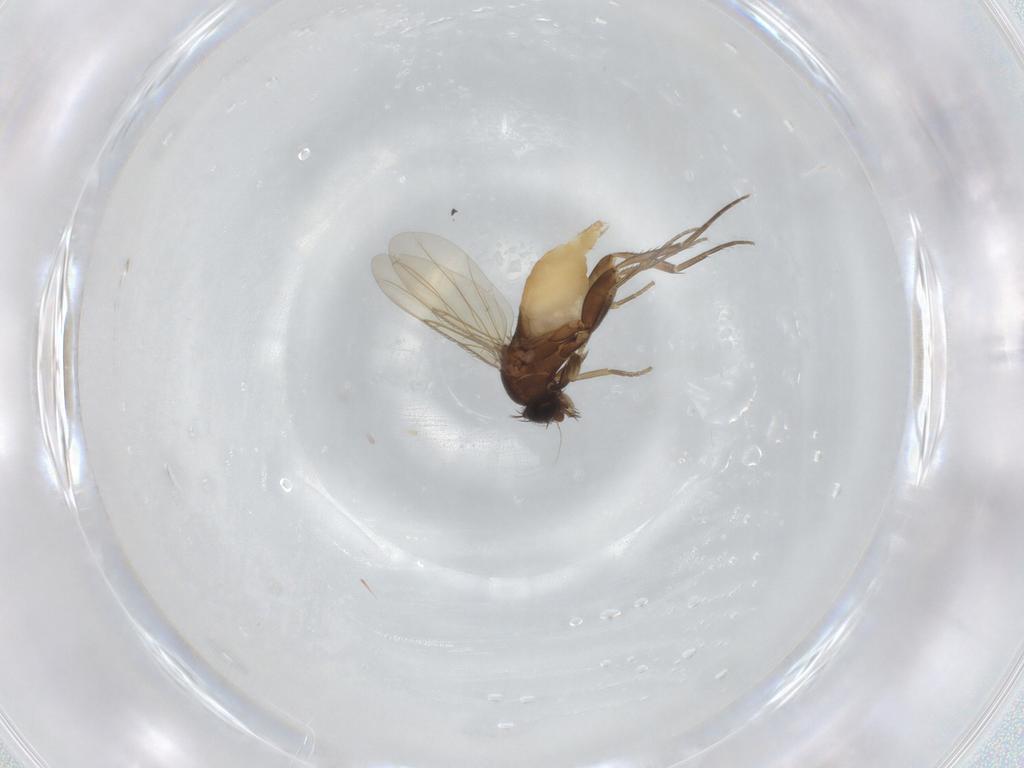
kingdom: Animalia
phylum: Arthropoda
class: Insecta
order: Diptera
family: Phoridae
